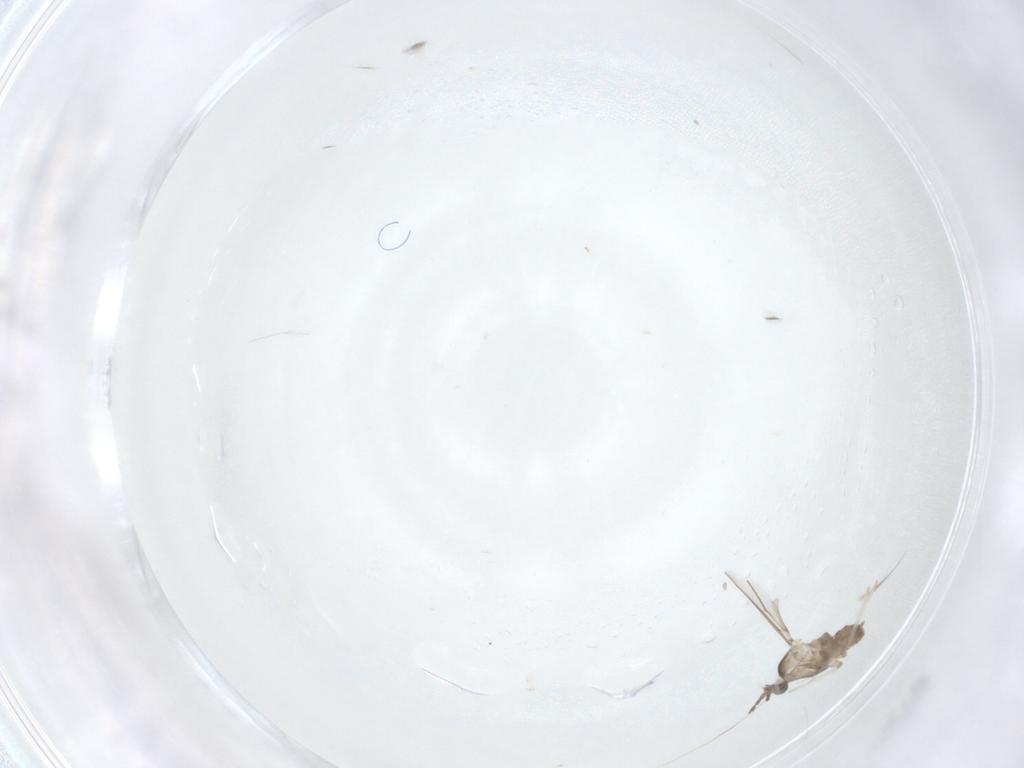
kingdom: Animalia
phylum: Arthropoda
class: Insecta
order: Diptera
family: Cecidomyiidae
